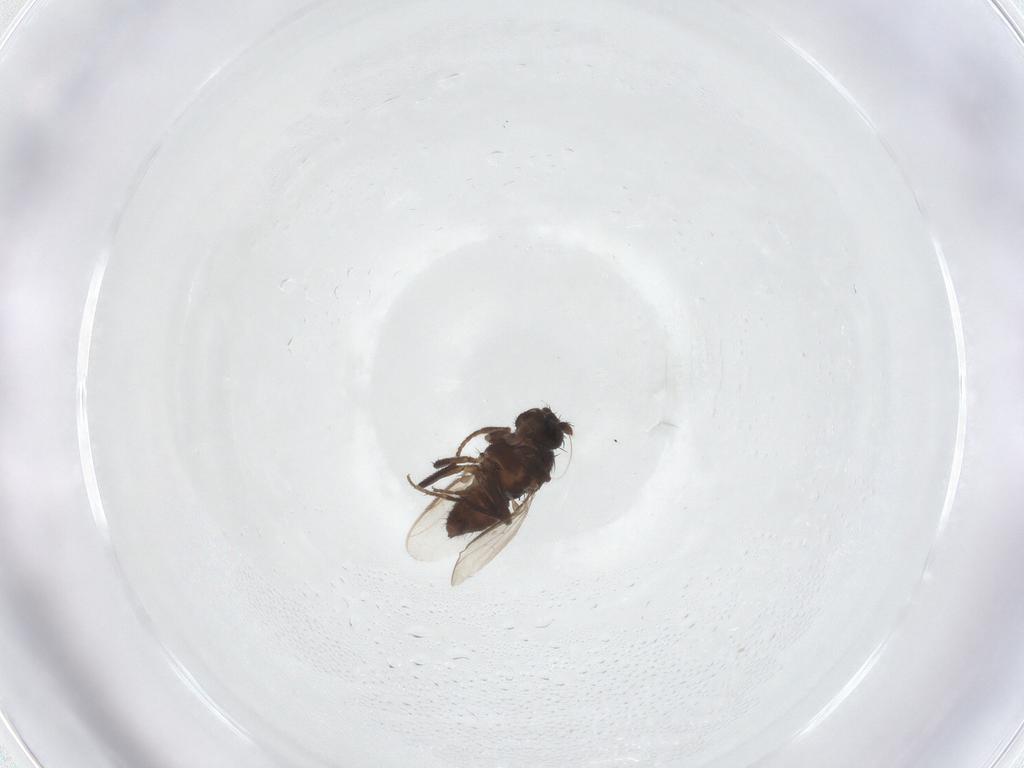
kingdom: Animalia
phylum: Arthropoda
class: Insecta
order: Diptera
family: Sphaeroceridae
